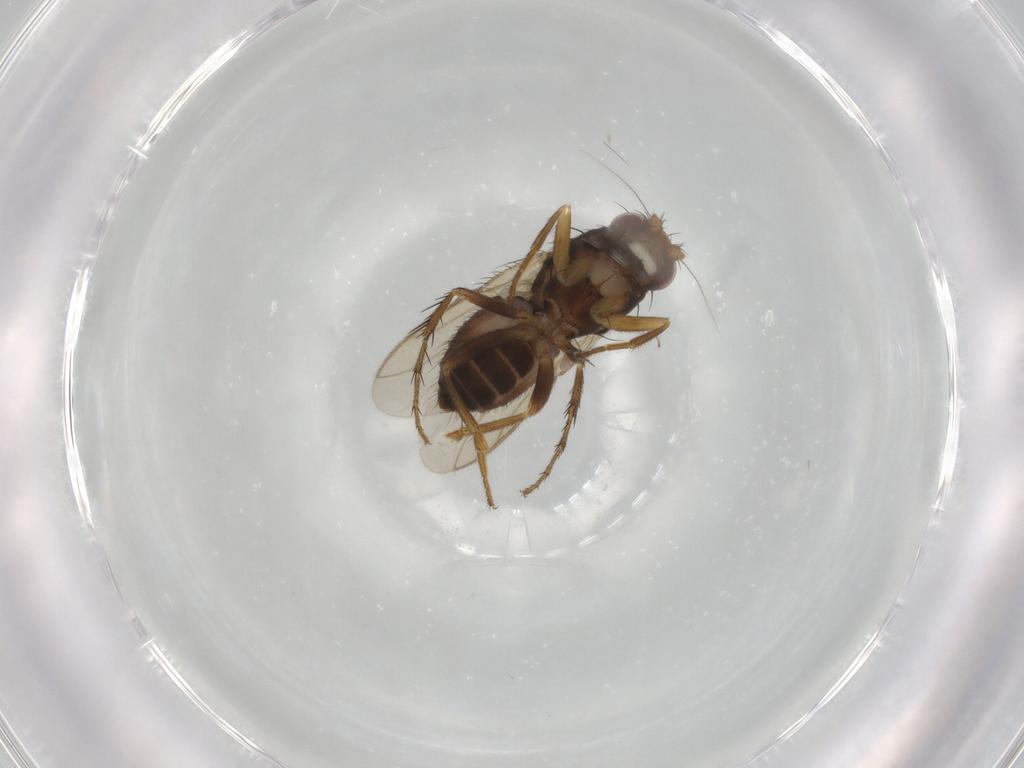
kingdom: Animalia
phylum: Arthropoda
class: Insecta
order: Diptera
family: Sphaeroceridae
